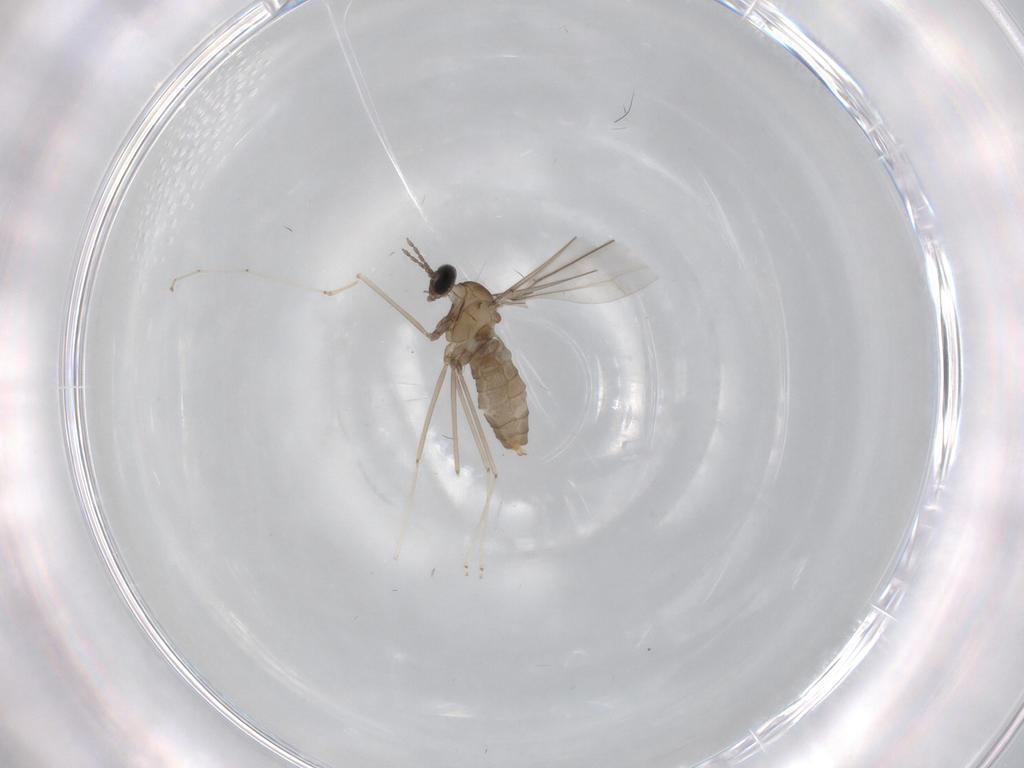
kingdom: Animalia
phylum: Arthropoda
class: Insecta
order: Diptera
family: Cecidomyiidae
